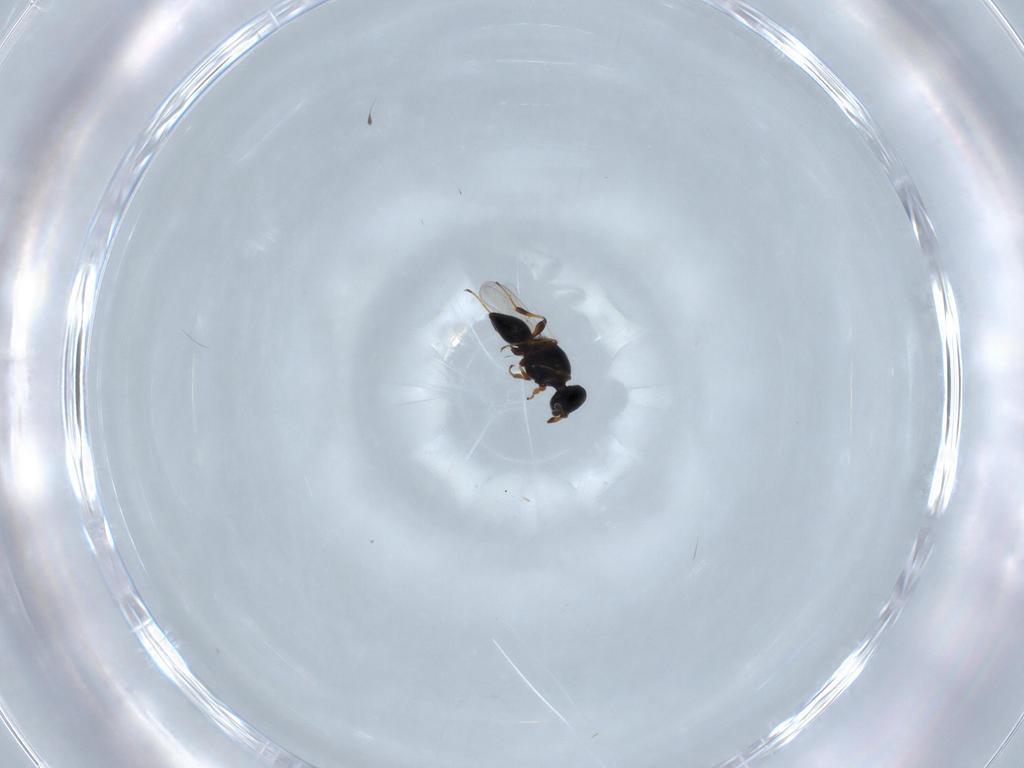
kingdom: Animalia
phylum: Arthropoda
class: Insecta
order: Hymenoptera
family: Platygastridae
